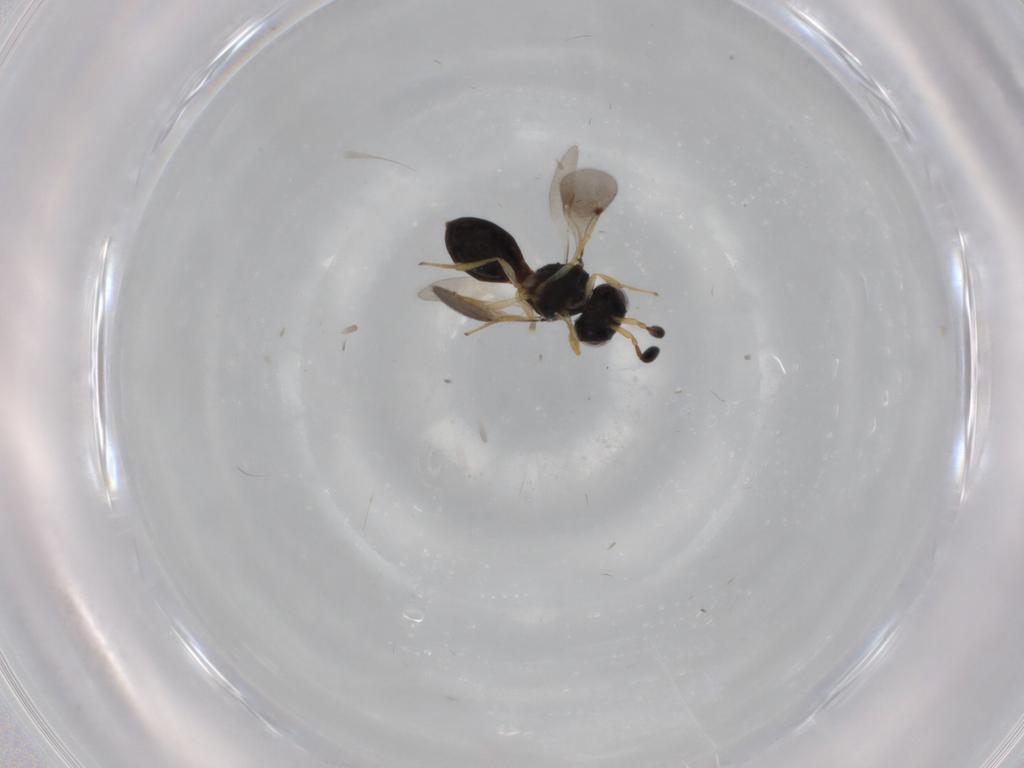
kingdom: Animalia
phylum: Arthropoda
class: Insecta
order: Hymenoptera
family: Scelionidae
